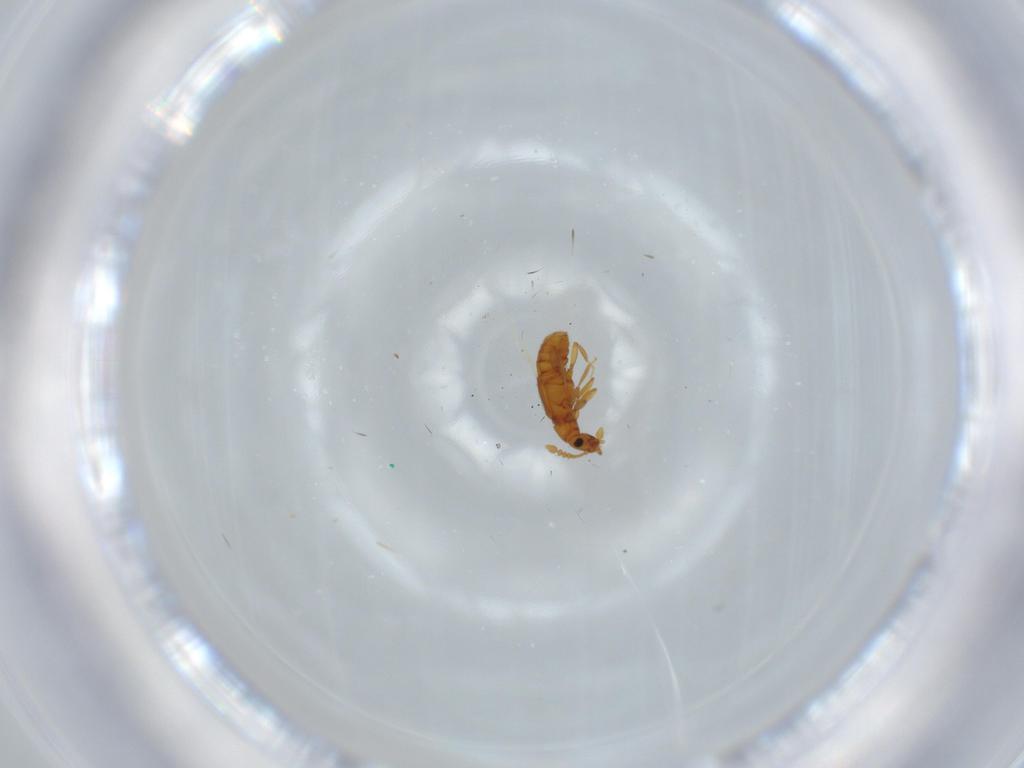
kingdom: Animalia
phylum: Arthropoda
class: Insecta
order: Coleoptera
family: Staphylinidae
